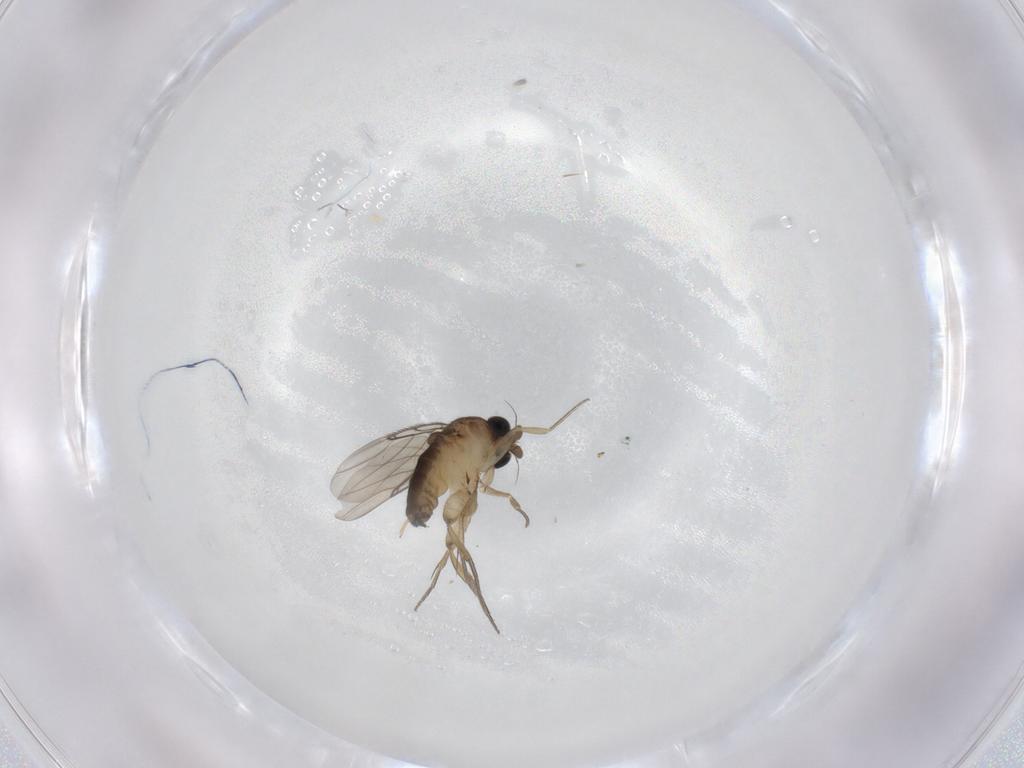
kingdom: Animalia
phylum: Arthropoda
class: Insecta
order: Diptera
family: Phoridae
